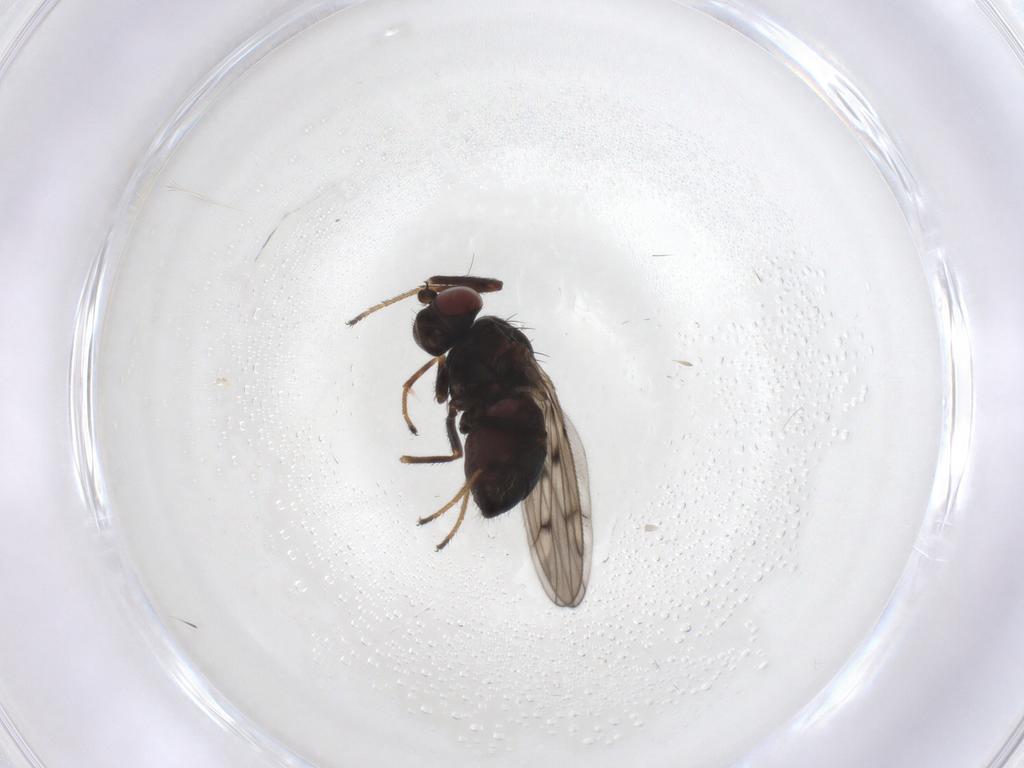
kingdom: Animalia
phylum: Arthropoda
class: Insecta
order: Diptera
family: Ephydridae
